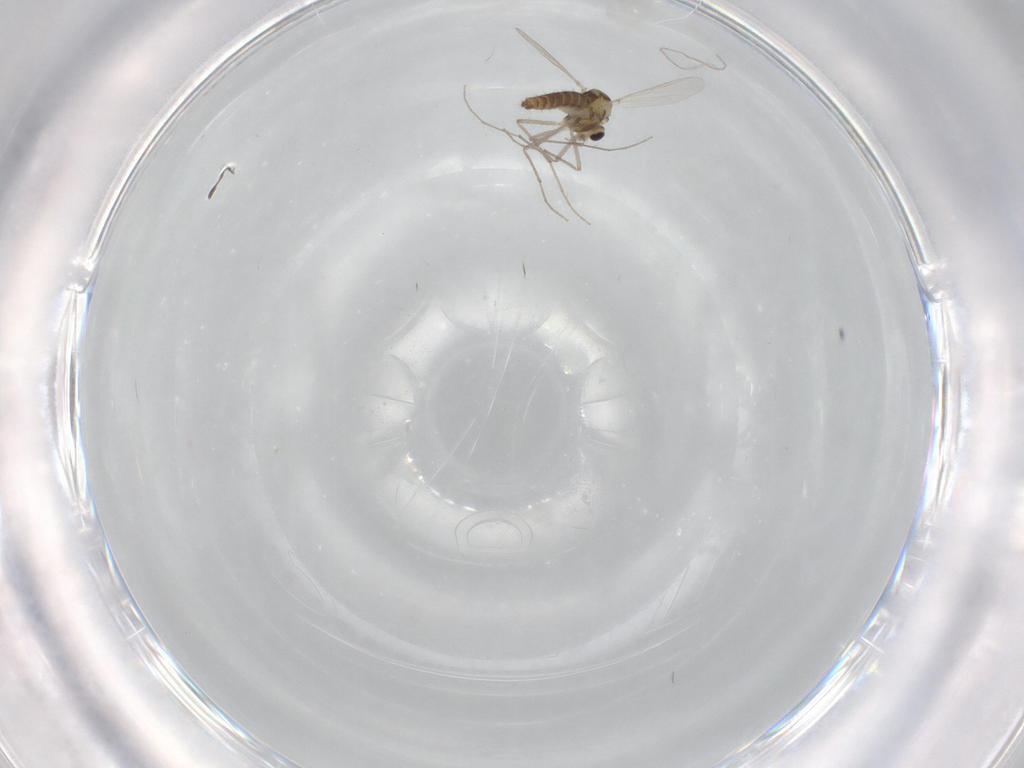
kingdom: Animalia
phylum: Arthropoda
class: Insecta
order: Diptera
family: Chironomidae
